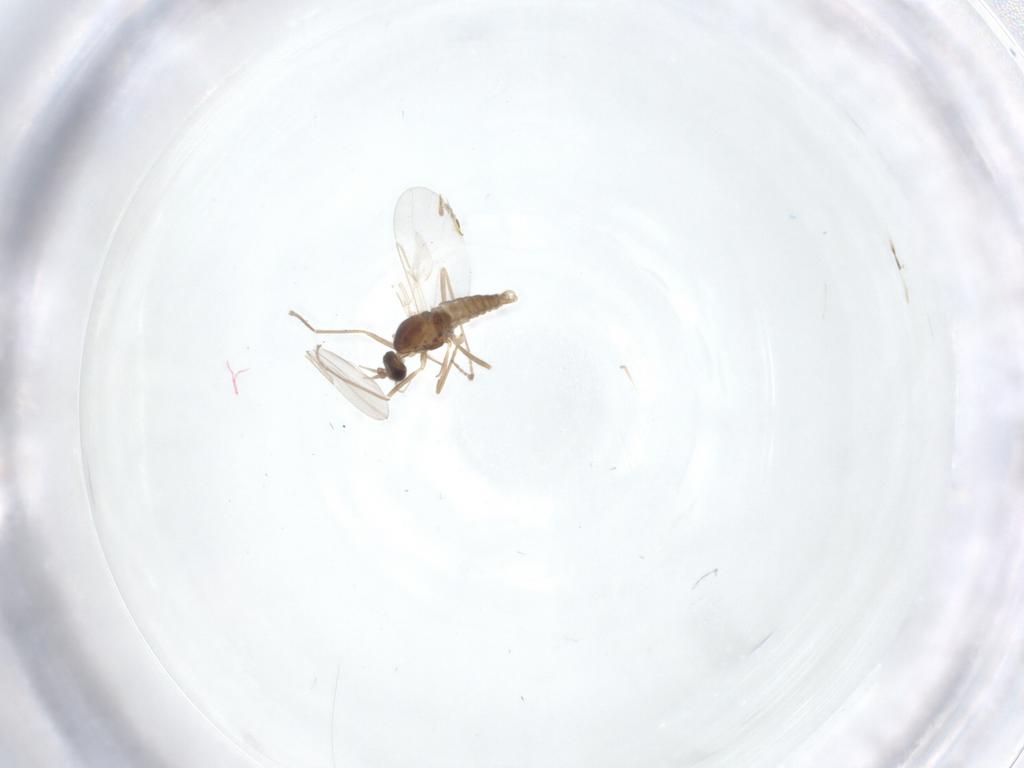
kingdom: Animalia
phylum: Arthropoda
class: Insecta
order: Diptera
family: Cecidomyiidae
